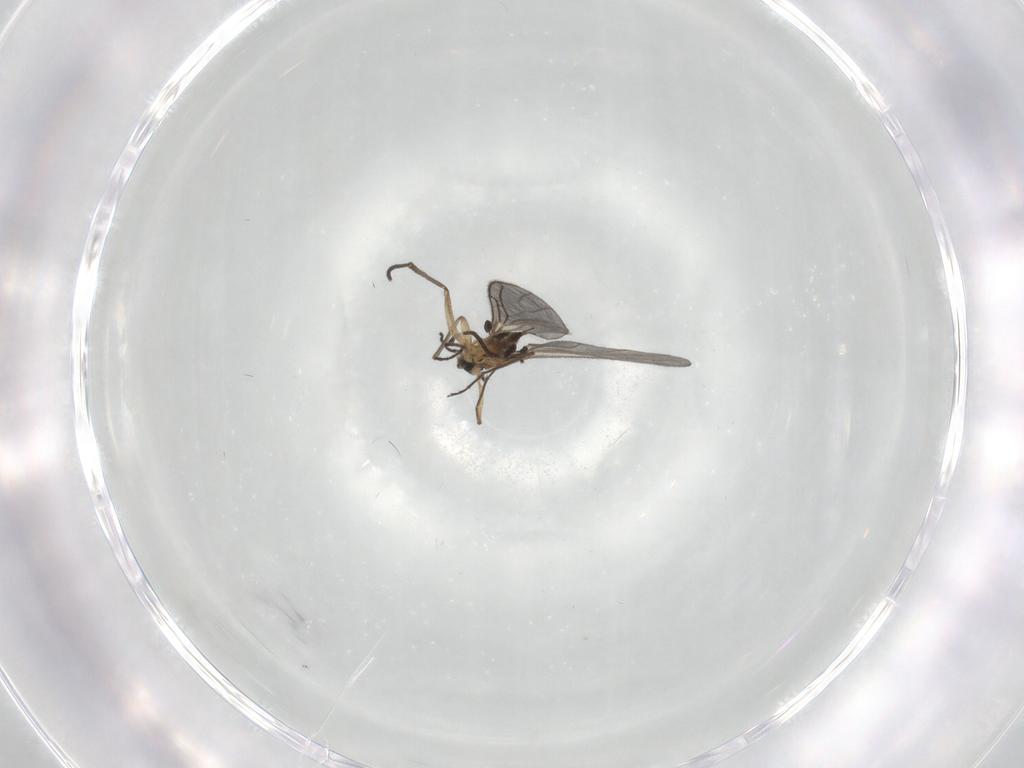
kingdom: Animalia
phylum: Arthropoda
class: Insecta
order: Diptera
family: Sciaridae
